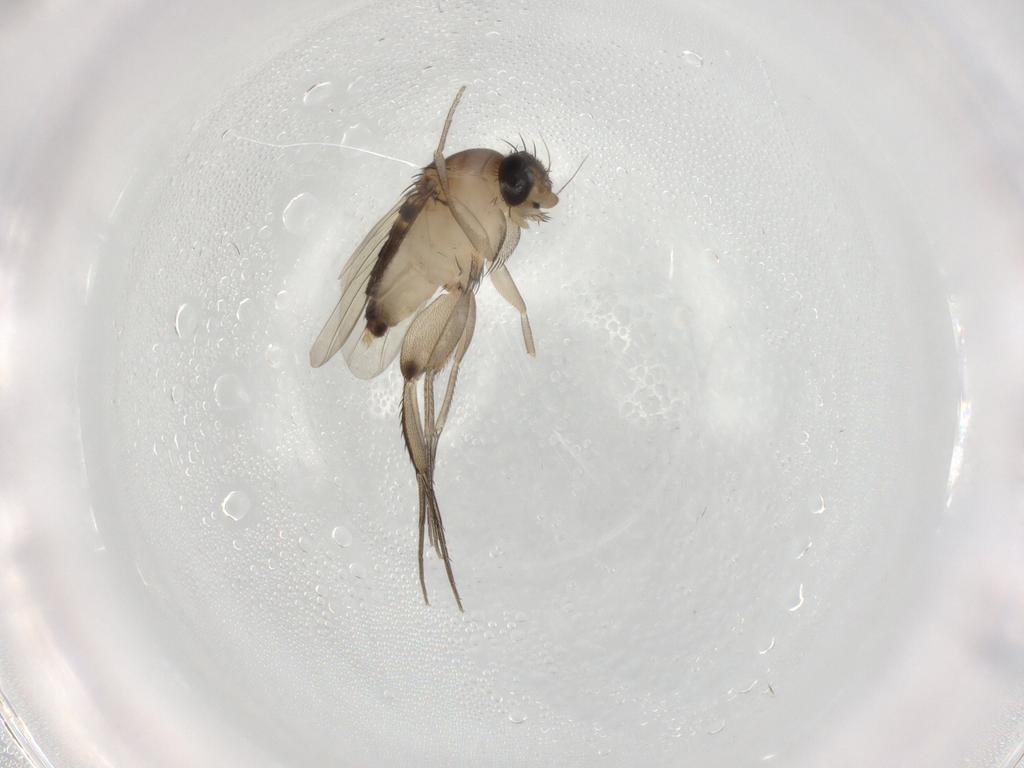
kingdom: Animalia
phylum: Arthropoda
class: Insecta
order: Diptera
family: Phoridae
